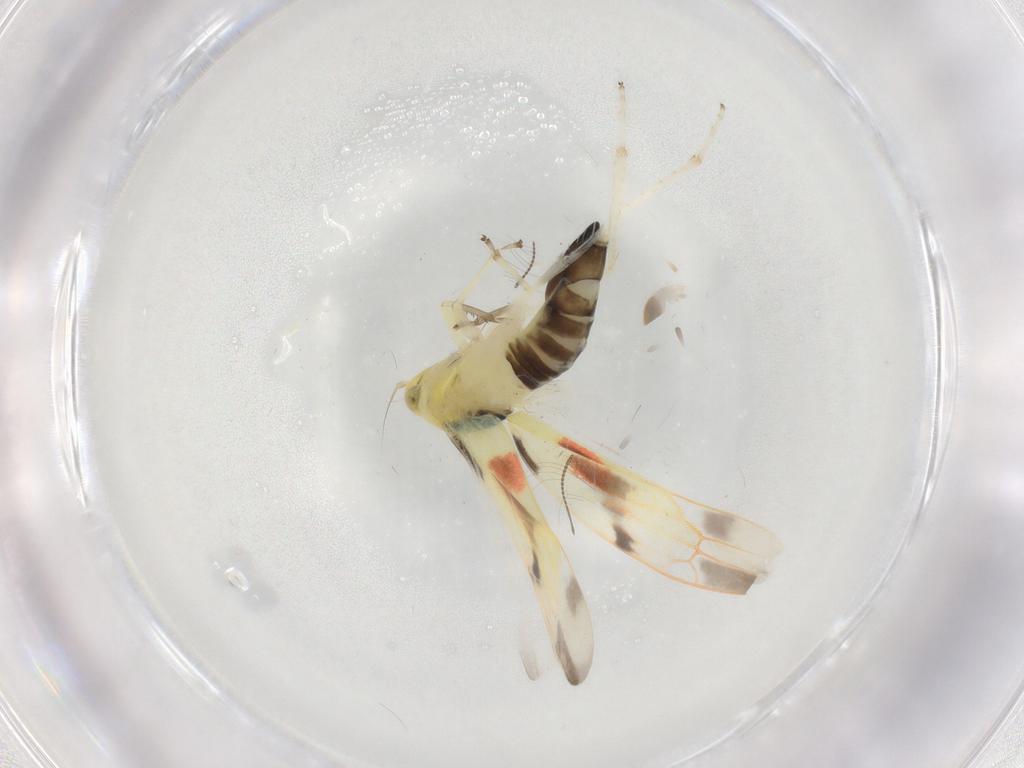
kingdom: Animalia
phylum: Arthropoda
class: Insecta
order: Hemiptera
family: Cicadellidae
